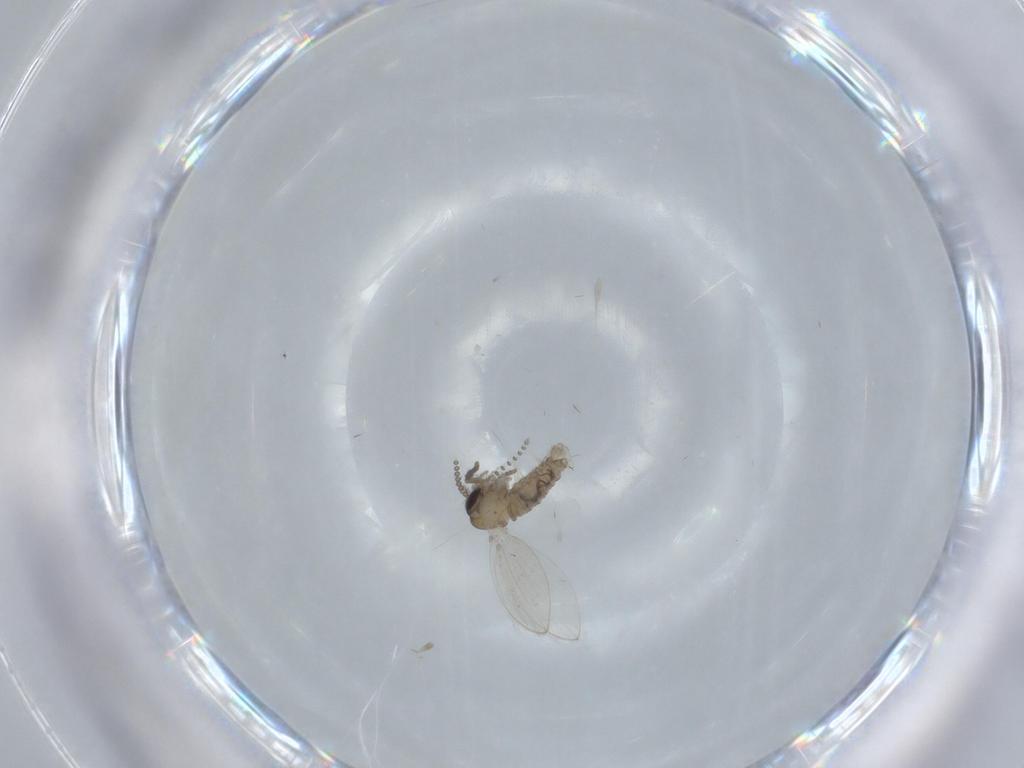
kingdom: Animalia
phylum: Arthropoda
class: Insecta
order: Diptera
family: Psychodidae
